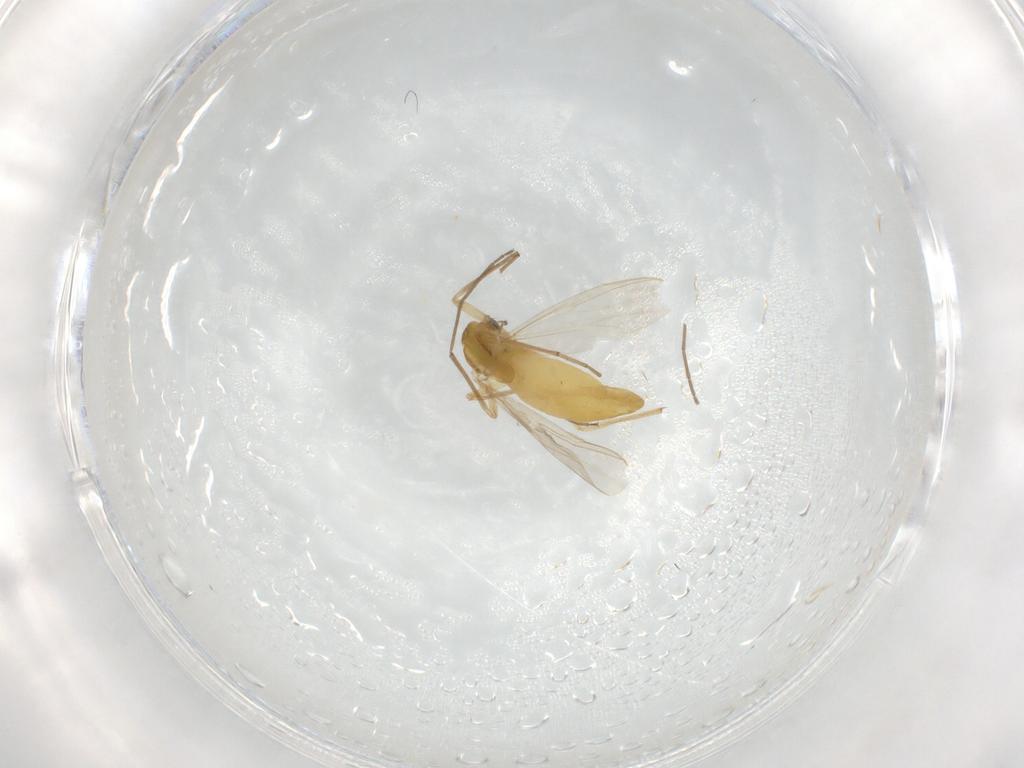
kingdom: Animalia
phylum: Arthropoda
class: Insecta
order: Diptera
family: Chironomidae
